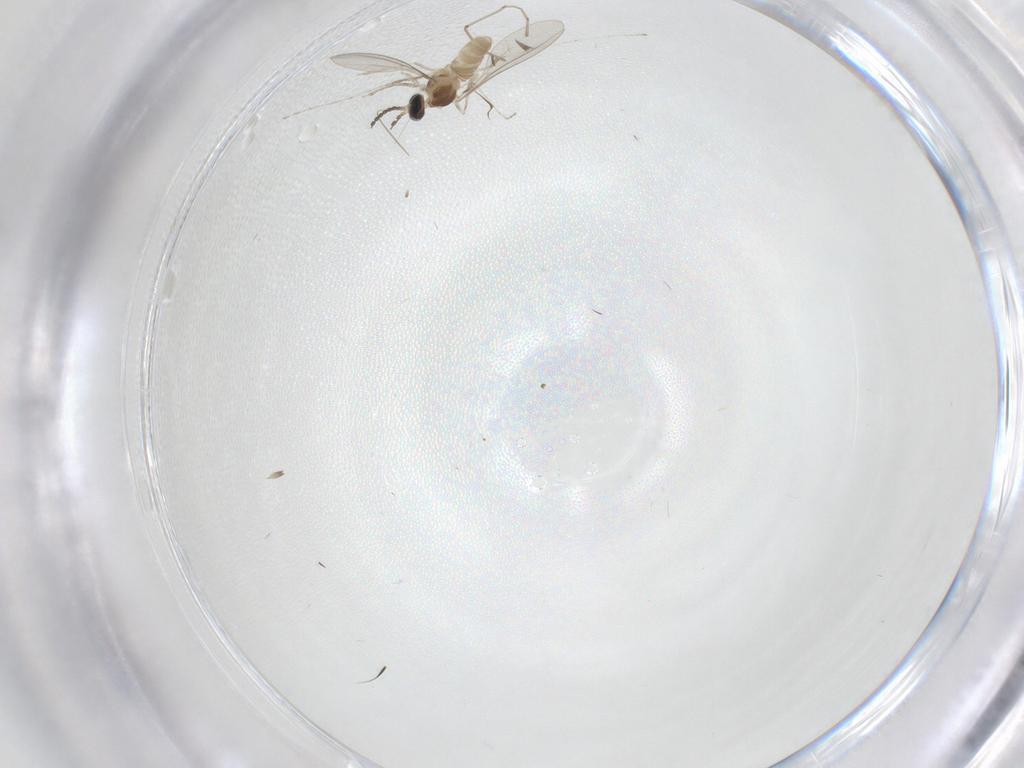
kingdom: Animalia
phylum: Arthropoda
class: Insecta
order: Diptera
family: Cecidomyiidae
